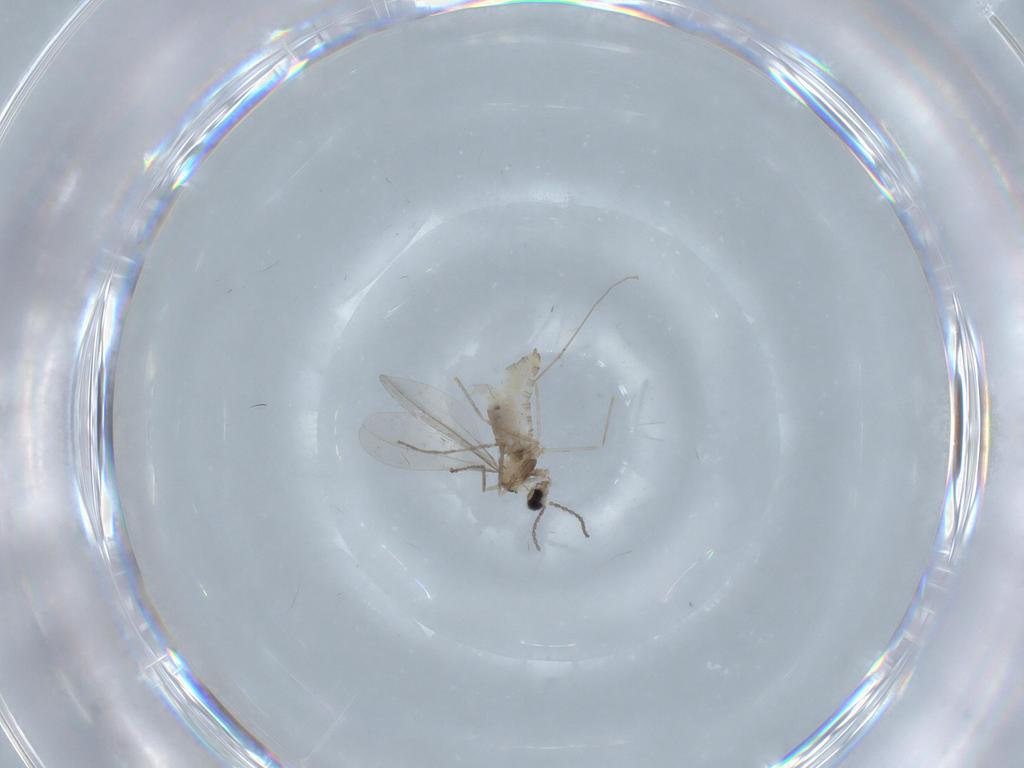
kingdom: Animalia
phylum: Arthropoda
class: Insecta
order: Diptera
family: Cecidomyiidae
